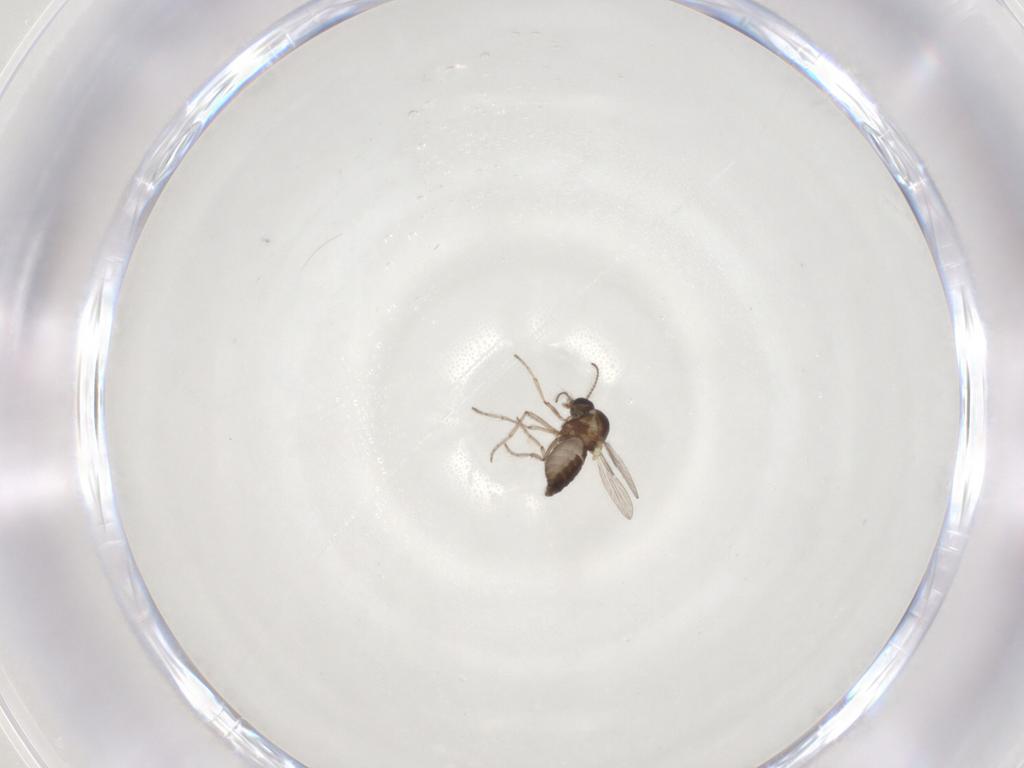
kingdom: Animalia
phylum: Arthropoda
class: Insecta
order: Diptera
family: Ceratopogonidae
